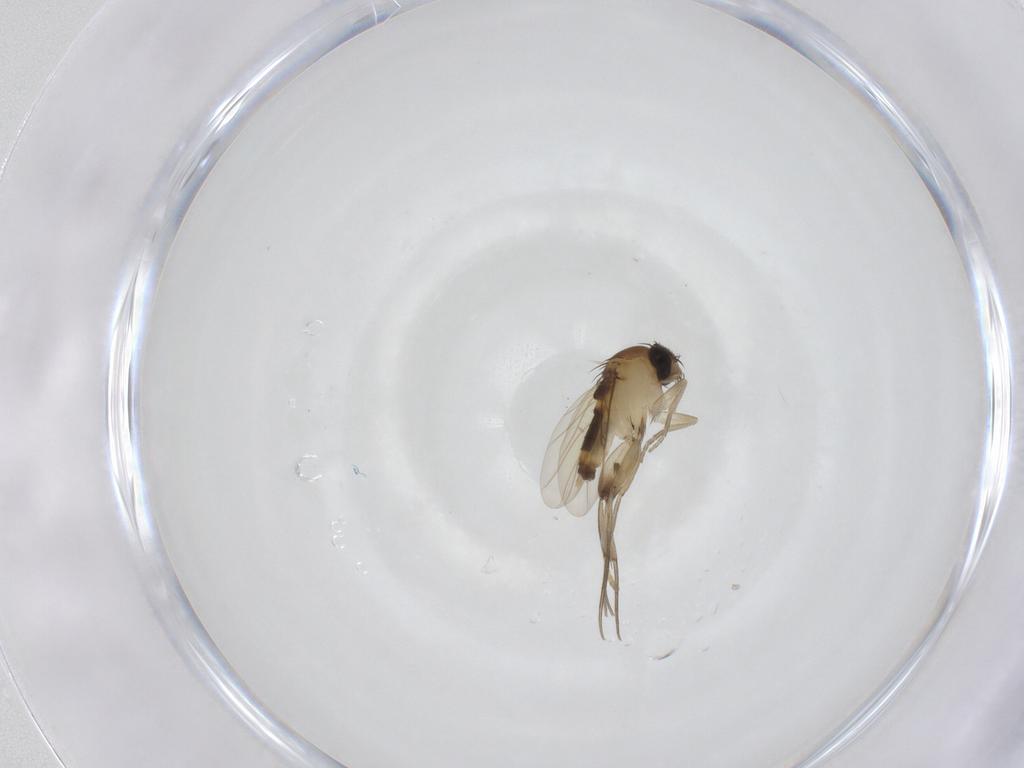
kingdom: Animalia
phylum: Arthropoda
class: Insecta
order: Diptera
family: Phoridae
